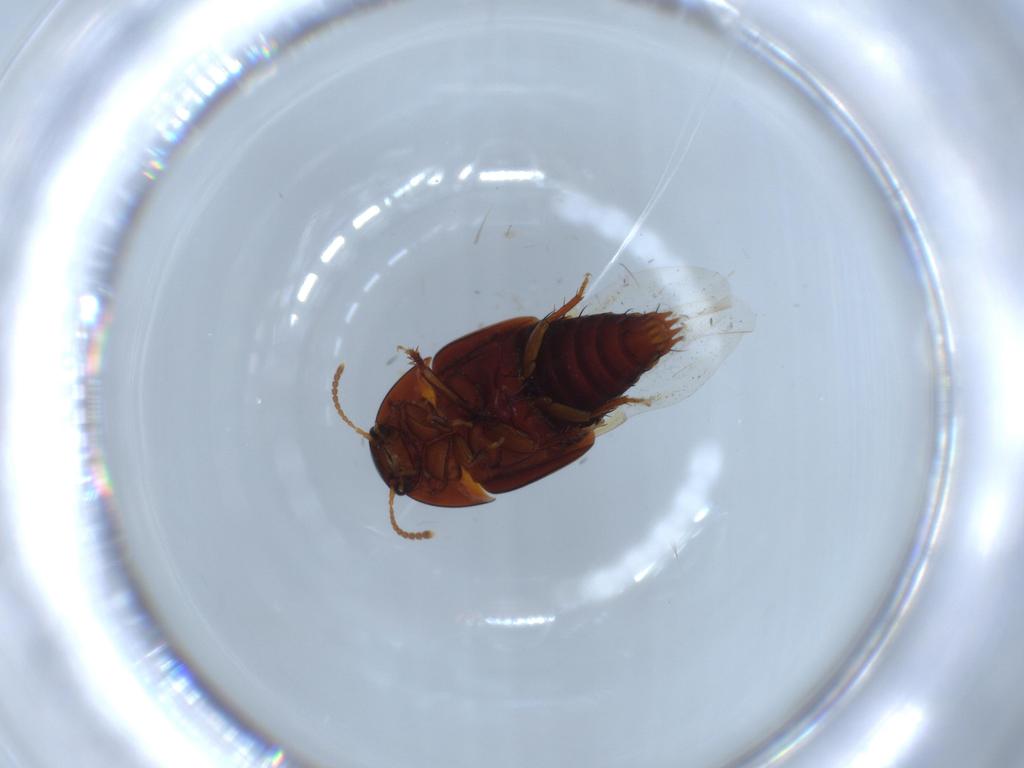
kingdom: Animalia
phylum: Arthropoda
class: Insecta
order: Coleoptera
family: Staphylinidae
